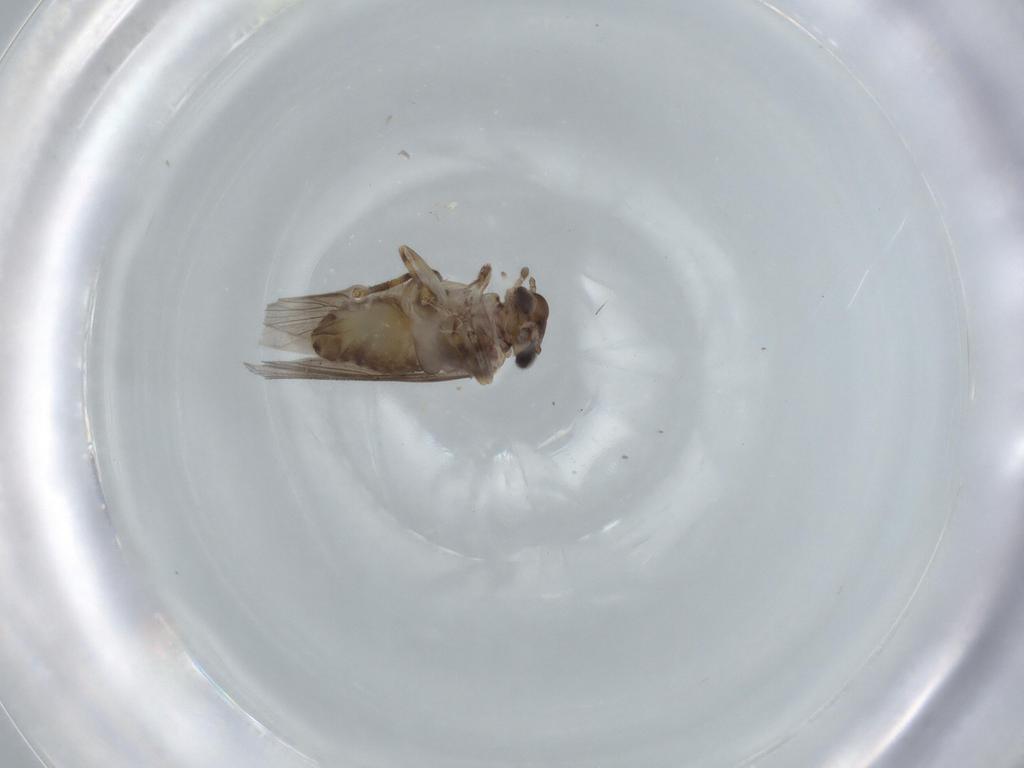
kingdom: Animalia
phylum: Arthropoda
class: Insecta
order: Psocodea
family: Lepidopsocidae
